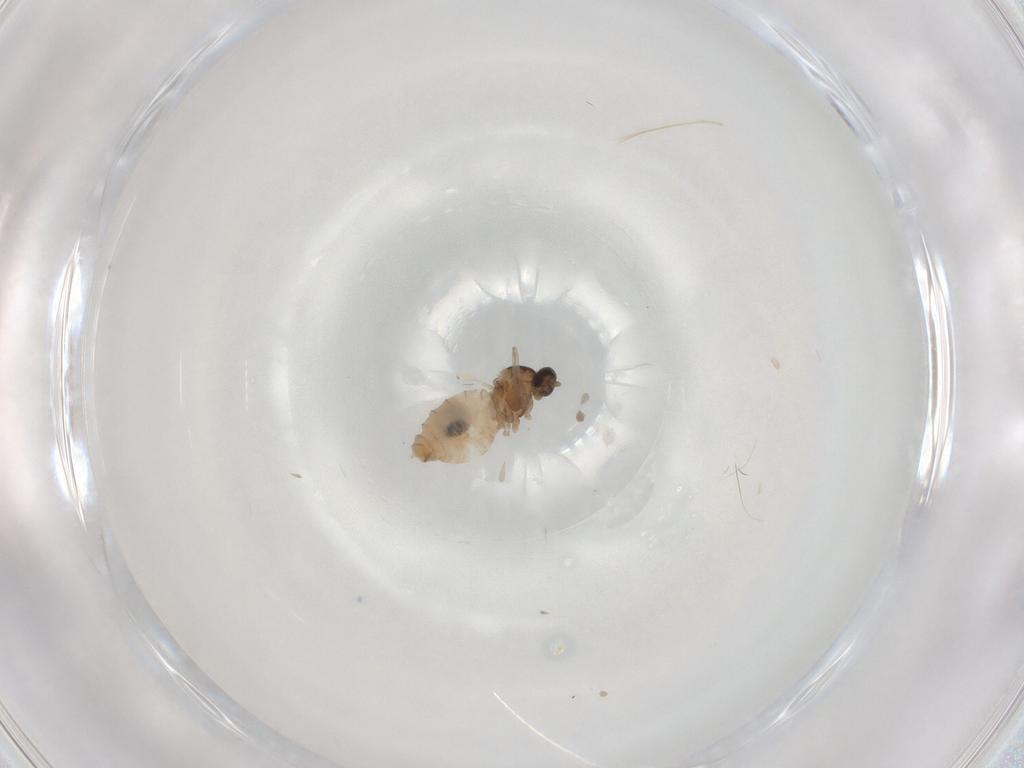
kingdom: Animalia
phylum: Arthropoda
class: Insecta
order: Diptera
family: Cecidomyiidae
